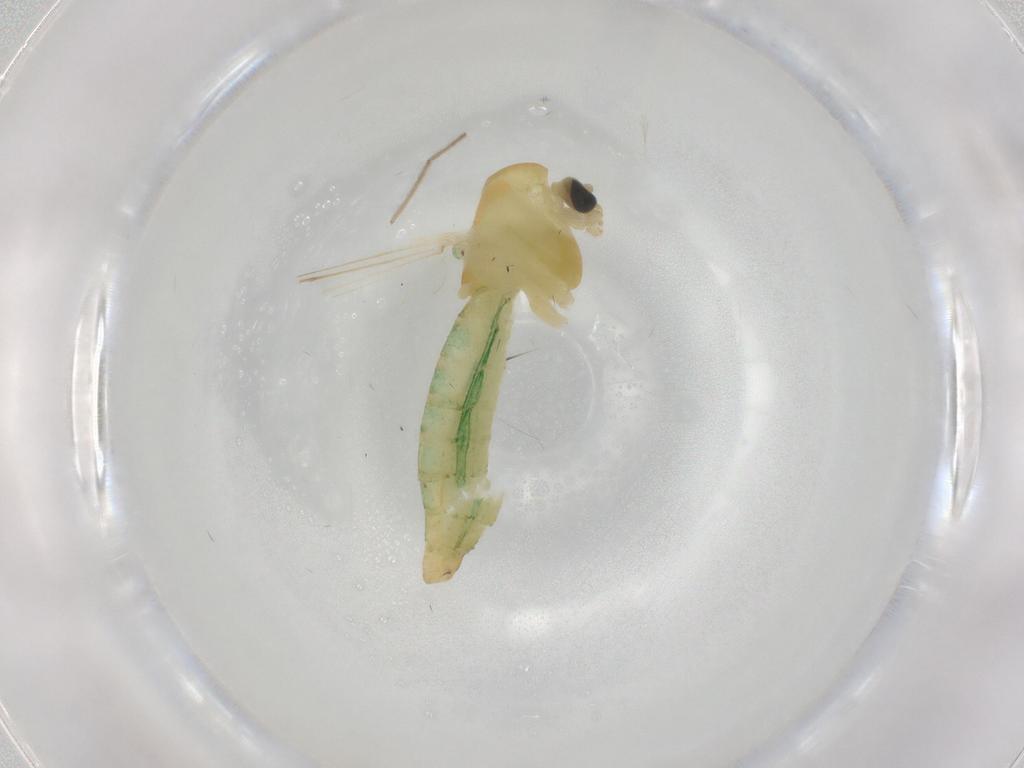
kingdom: Animalia
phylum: Arthropoda
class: Insecta
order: Diptera
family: Chironomidae
